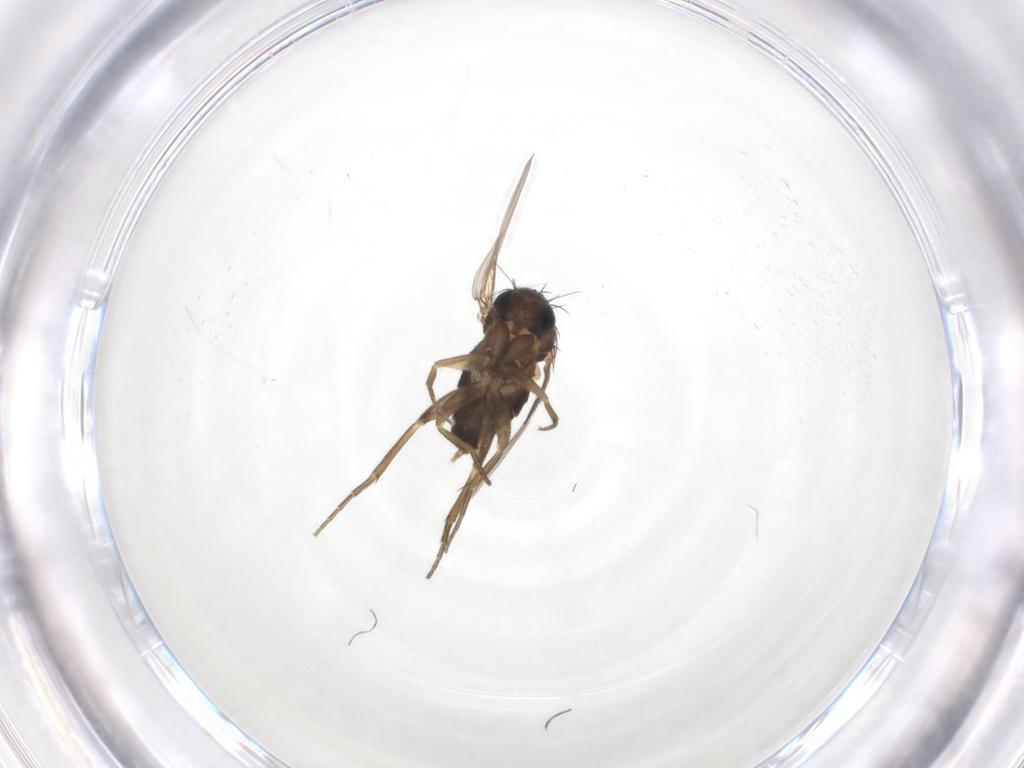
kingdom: Animalia
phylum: Arthropoda
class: Insecta
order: Diptera
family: Phoridae
